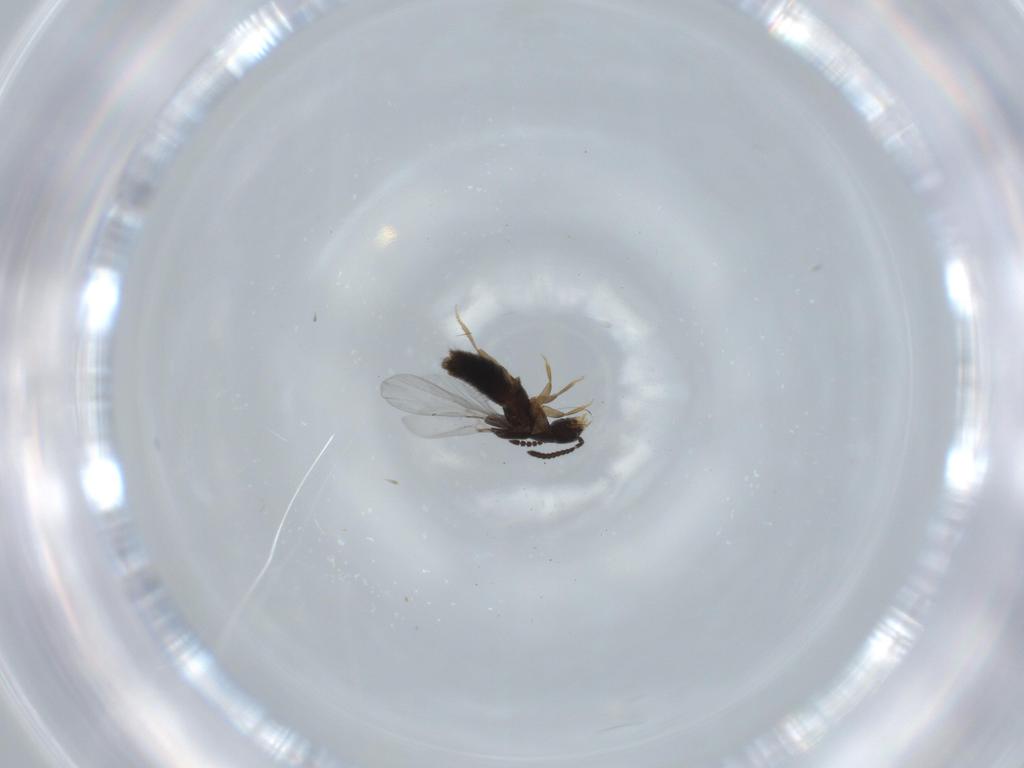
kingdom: Animalia
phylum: Arthropoda
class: Insecta
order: Coleoptera
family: Staphylinidae
